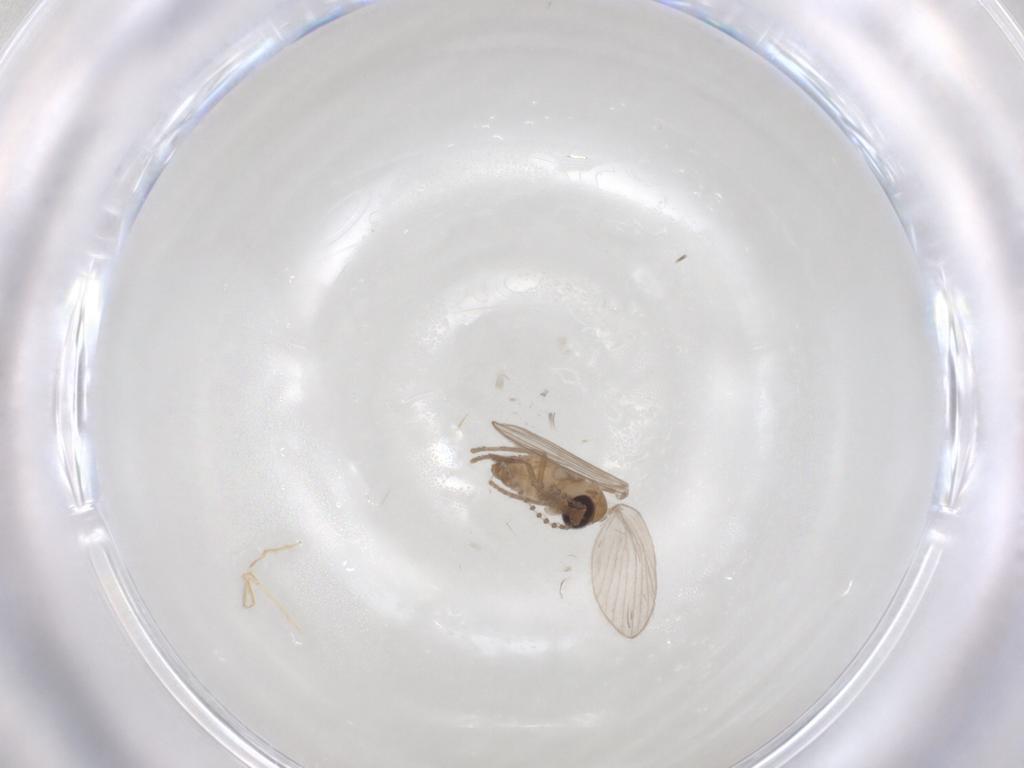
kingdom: Animalia
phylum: Arthropoda
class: Insecta
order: Diptera
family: Psychodidae
